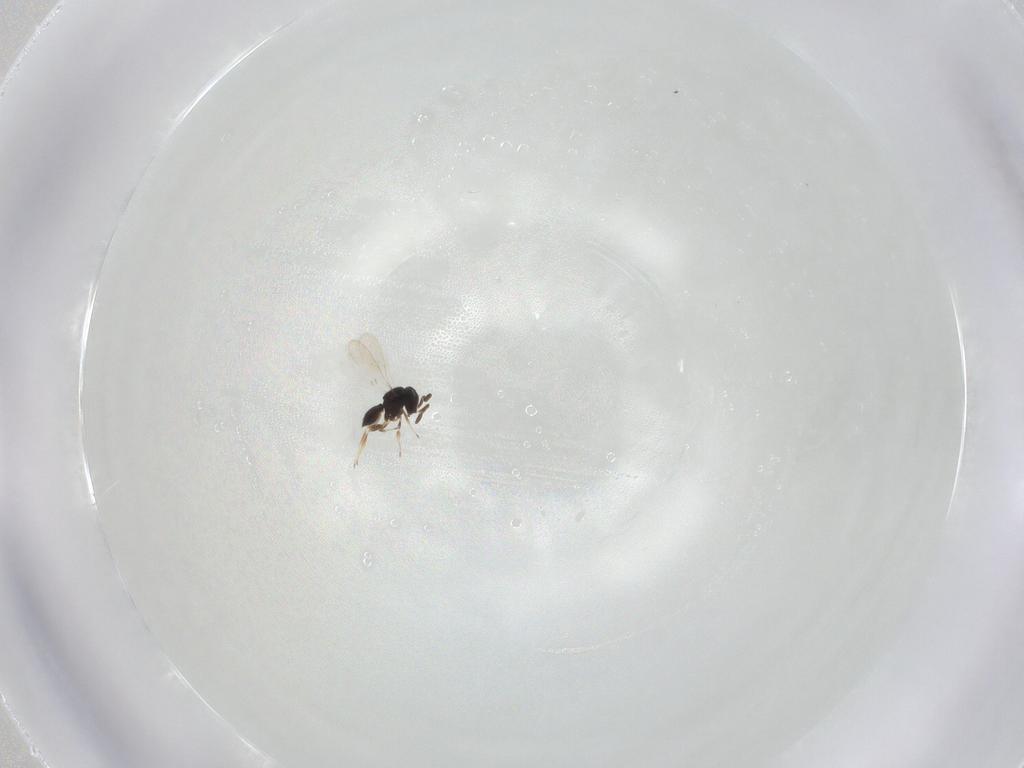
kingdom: Animalia
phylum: Arthropoda
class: Insecta
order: Hymenoptera
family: Scelionidae
